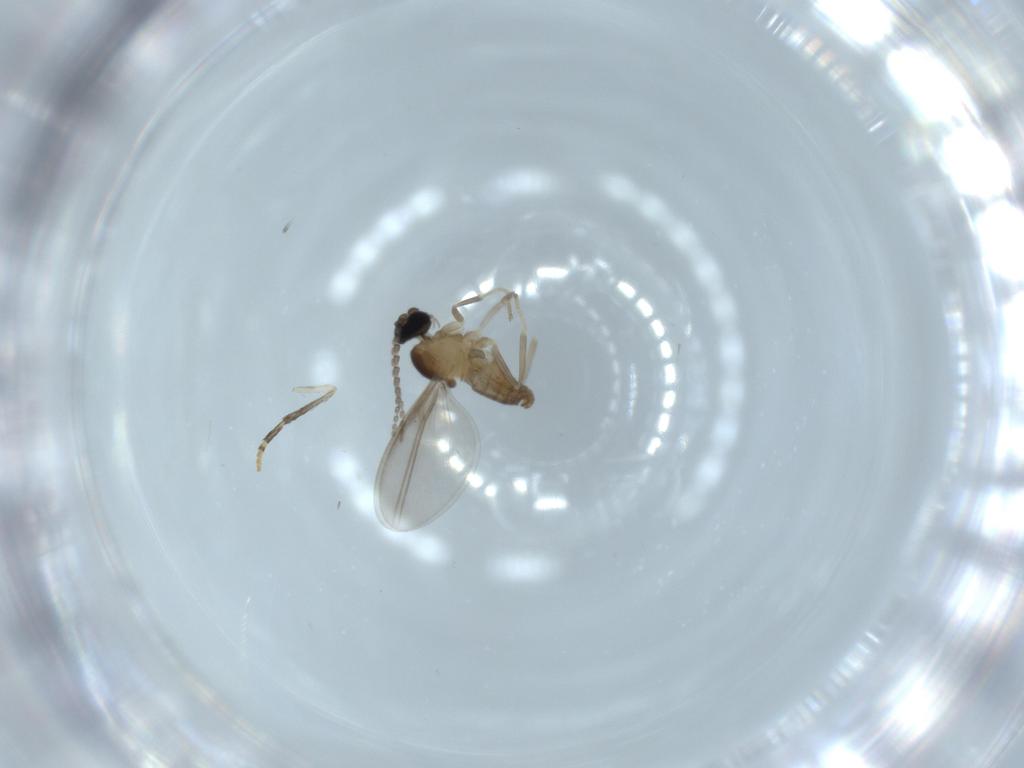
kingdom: Animalia
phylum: Arthropoda
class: Insecta
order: Diptera
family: Cecidomyiidae
